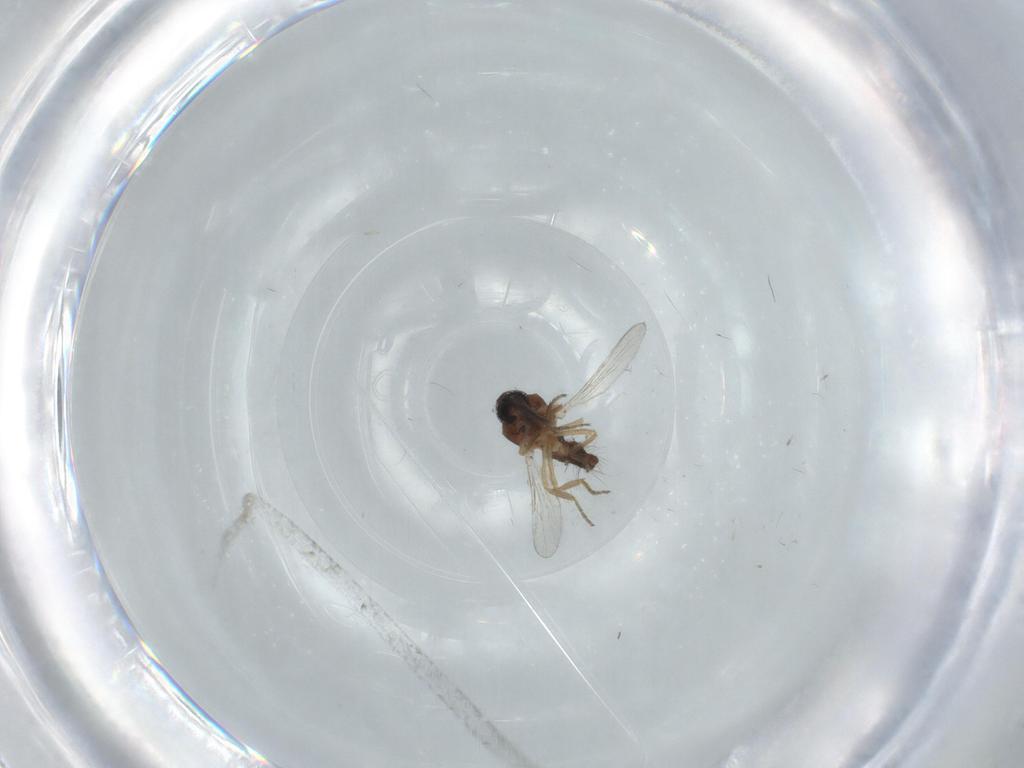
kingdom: Animalia
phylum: Arthropoda
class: Insecta
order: Diptera
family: Ceratopogonidae
